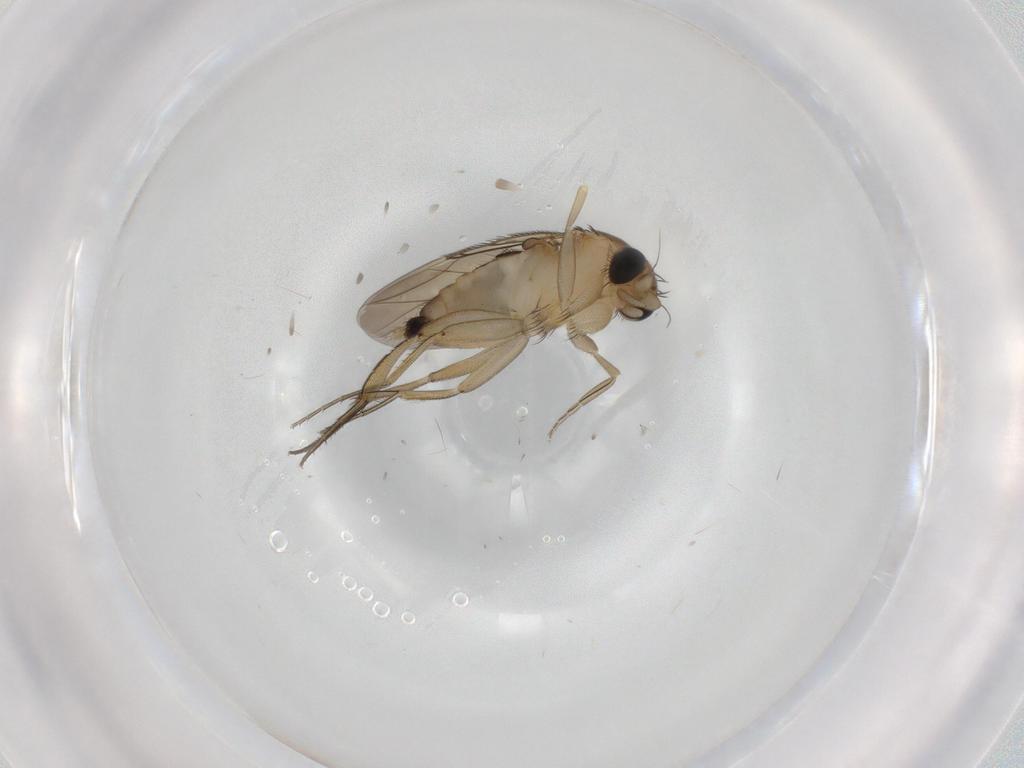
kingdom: Animalia
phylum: Arthropoda
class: Insecta
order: Diptera
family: Phoridae
